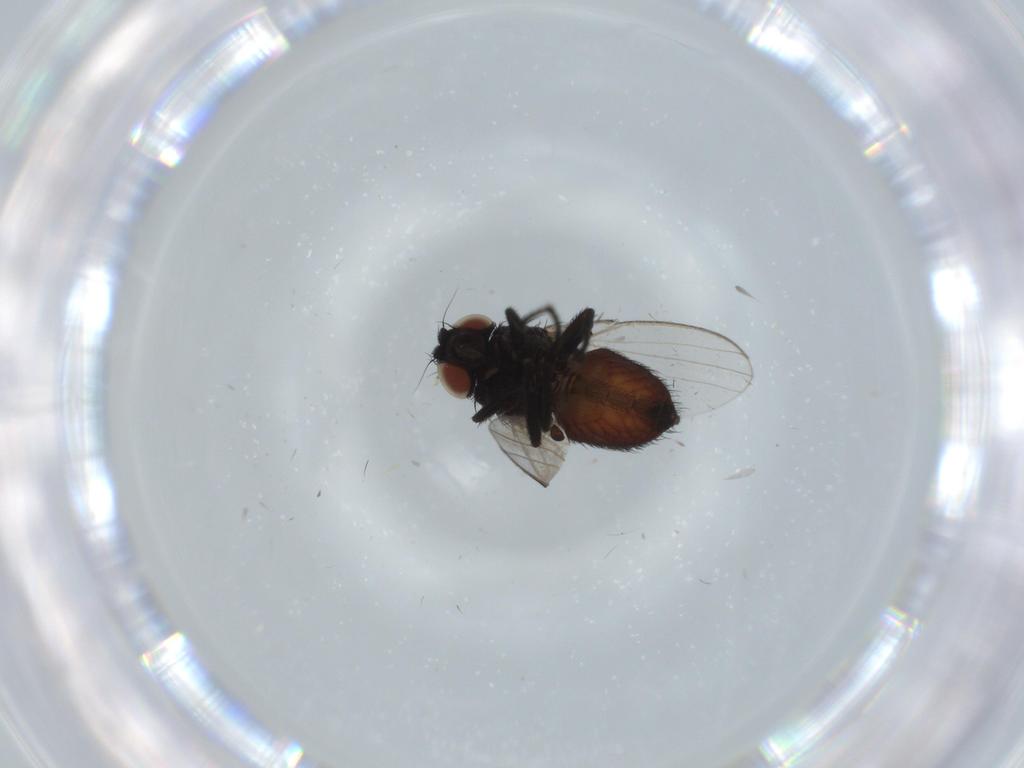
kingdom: Animalia
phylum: Arthropoda
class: Insecta
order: Diptera
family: Milichiidae
